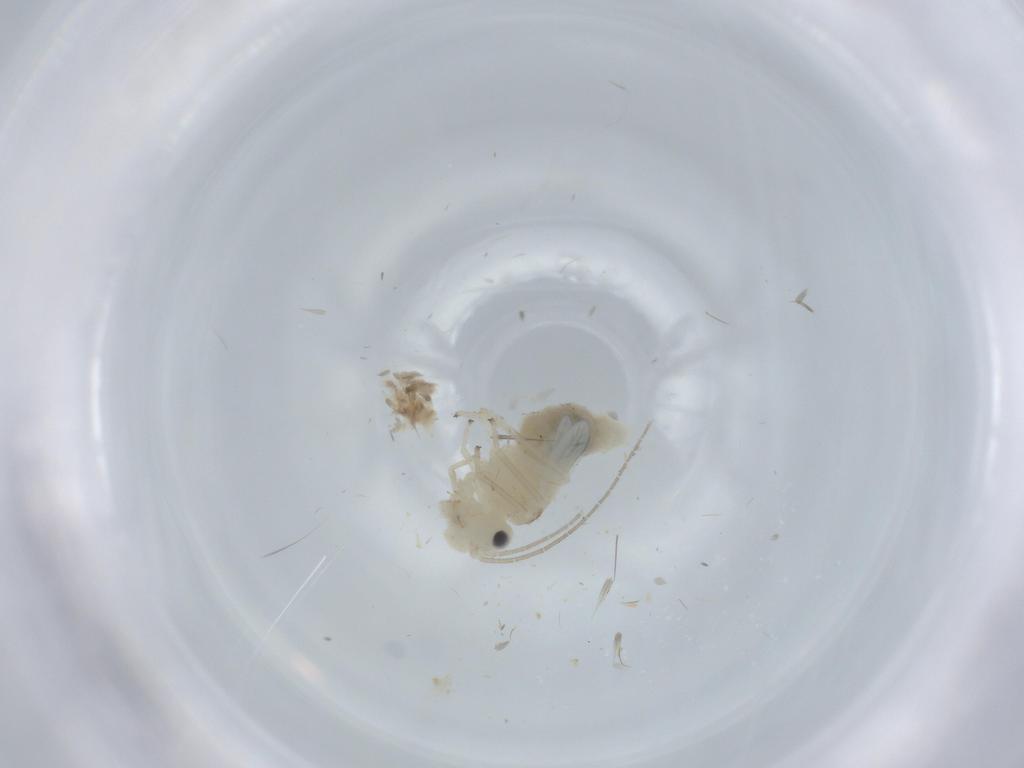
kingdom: Animalia
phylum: Arthropoda
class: Insecta
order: Psocodea
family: Caeciliusidae
